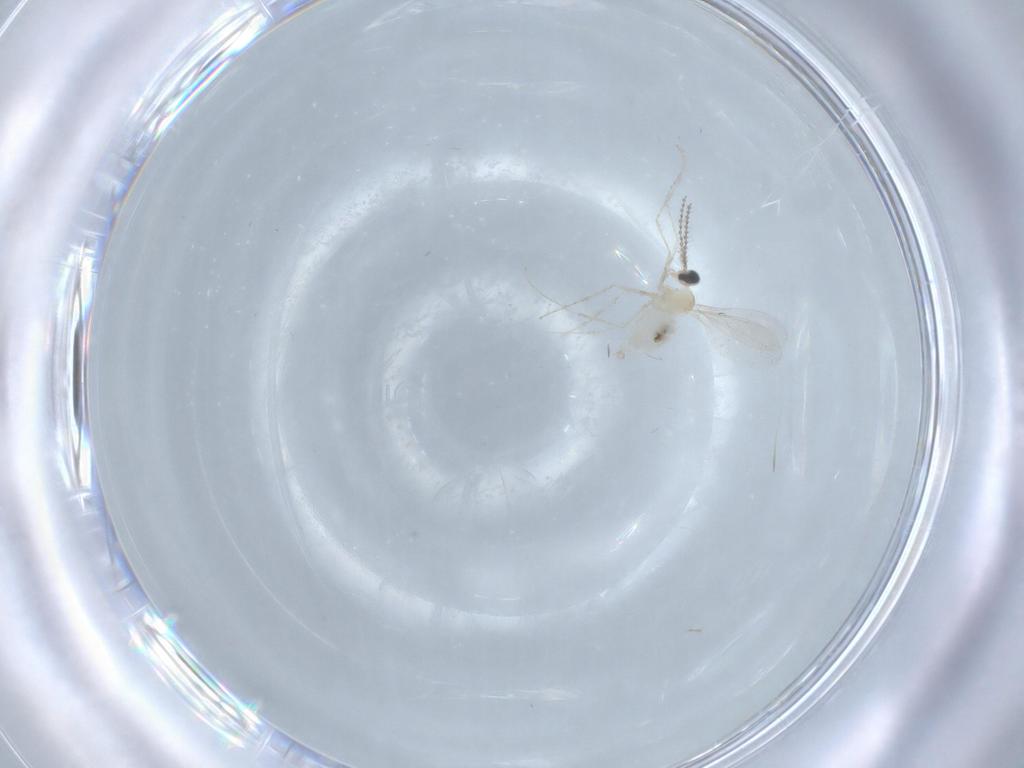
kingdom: Animalia
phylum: Arthropoda
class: Insecta
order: Diptera
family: Cecidomyiidae
